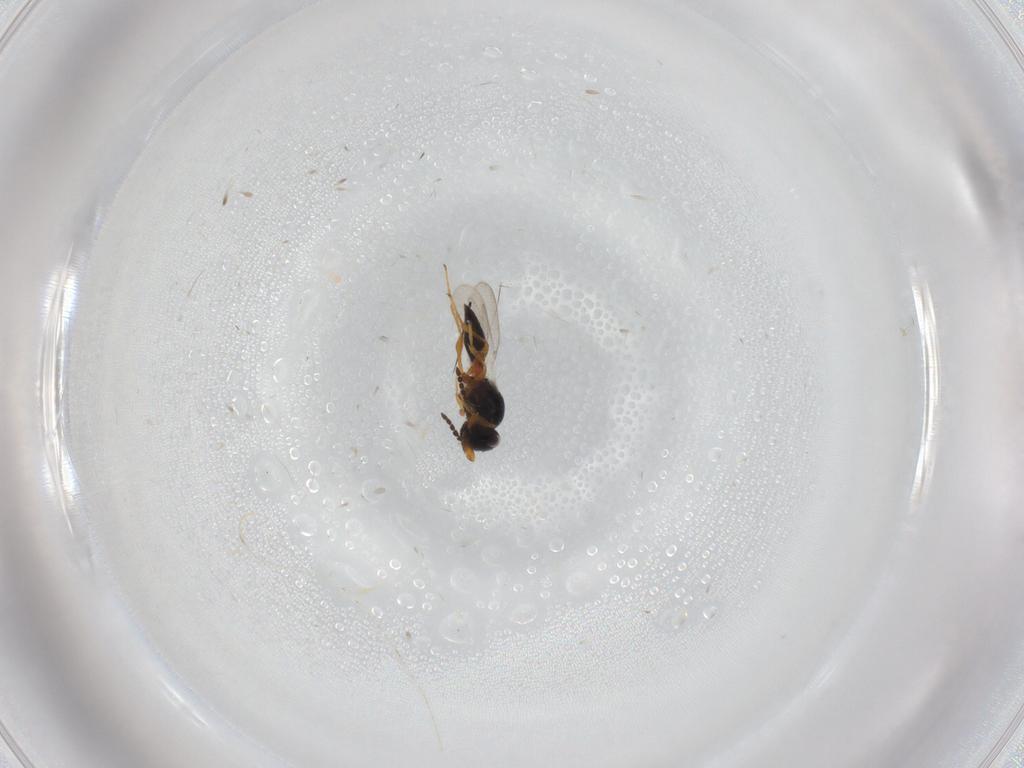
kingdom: Animalia
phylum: Arthropoda
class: Insecta
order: Hymenoptera
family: Platygastridae
